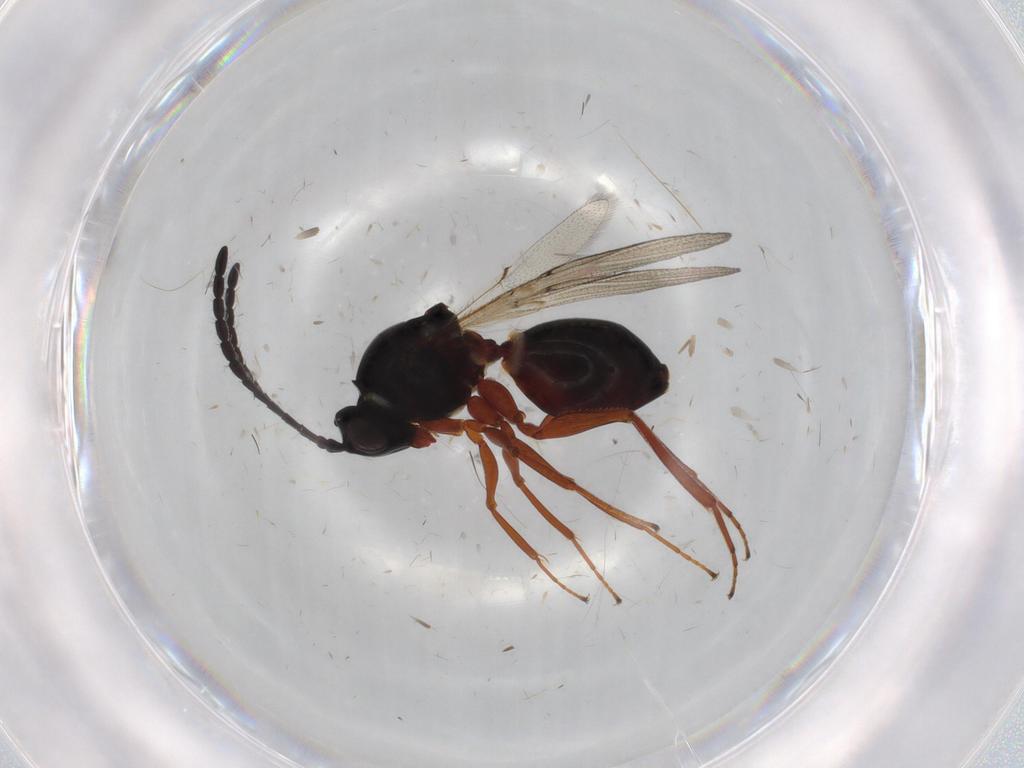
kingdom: Animalia
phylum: Arthropoda
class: Insecta
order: Hymenoptera
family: Figitidae
